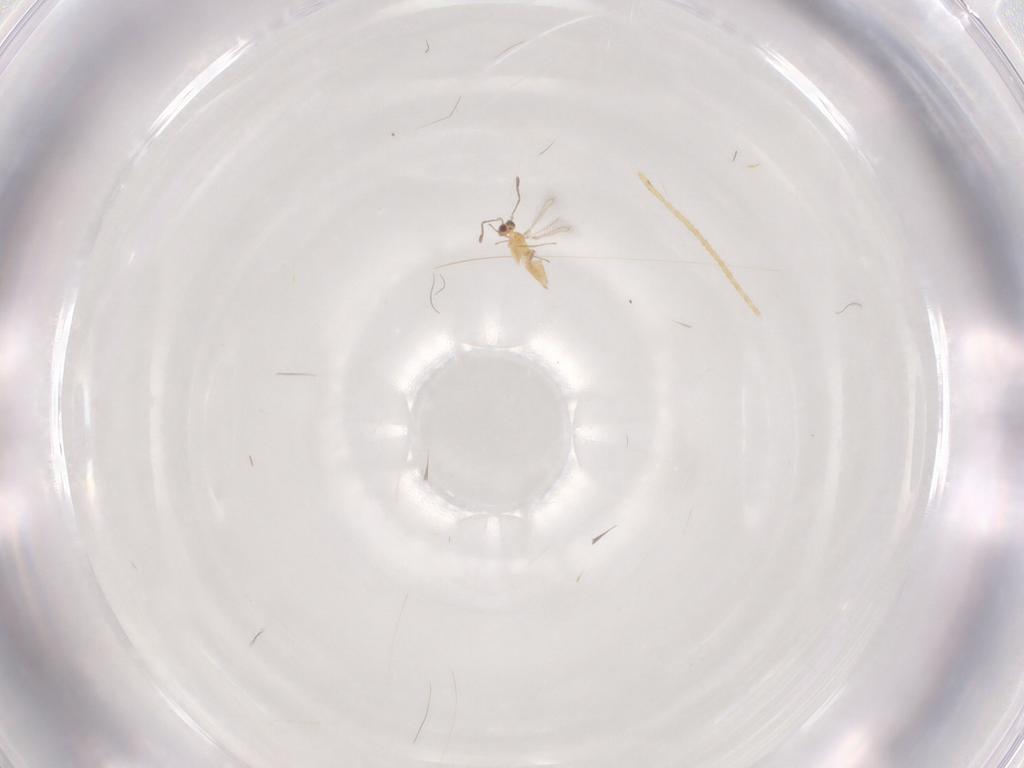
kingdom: Animalia
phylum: Arthropoda
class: Insecta
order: Hymenoptera
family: Mymaridae
